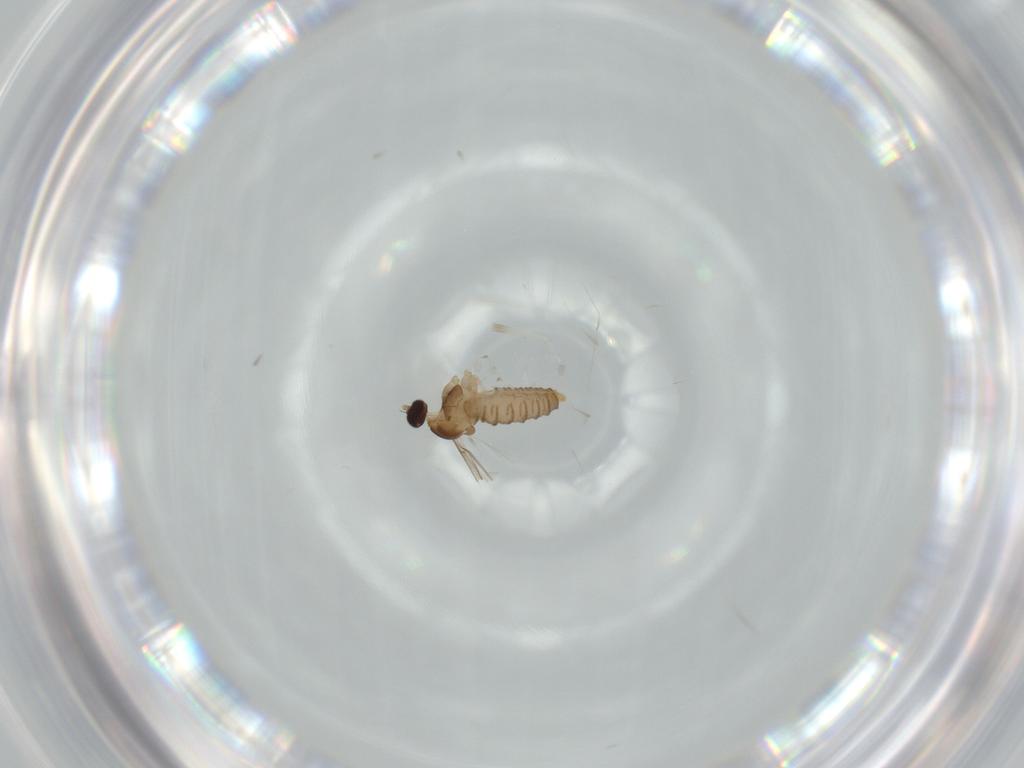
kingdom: Animalia
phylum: Arthropoda
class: Insecta
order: Diptera
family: Cecidomyiidae
